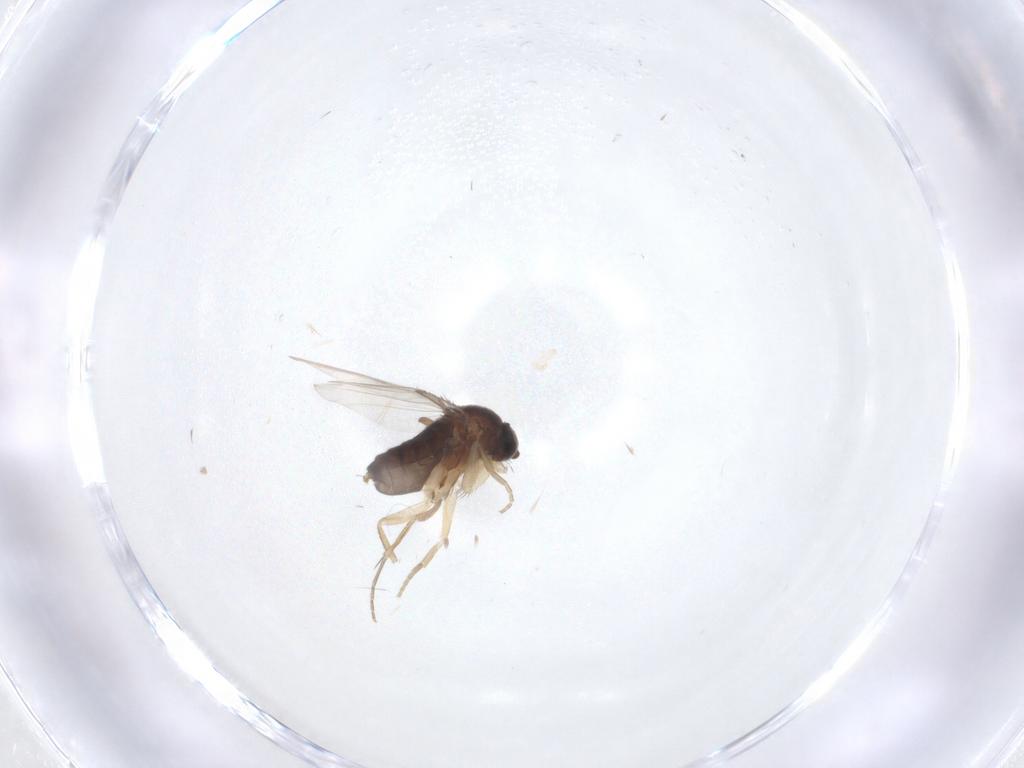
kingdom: Animalia
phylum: Arthropoda
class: Insecta
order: Diptera
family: Phoridae
